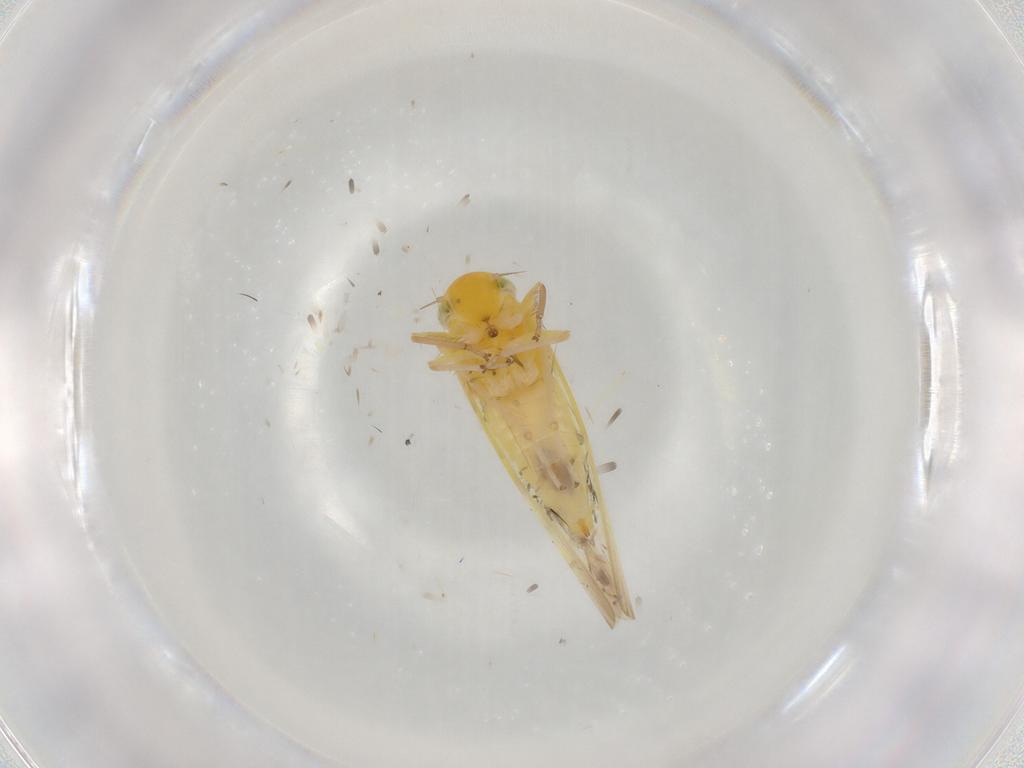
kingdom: Animalia
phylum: Arthropoda
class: Insecta
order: Hemiptera
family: Cicadellidae
